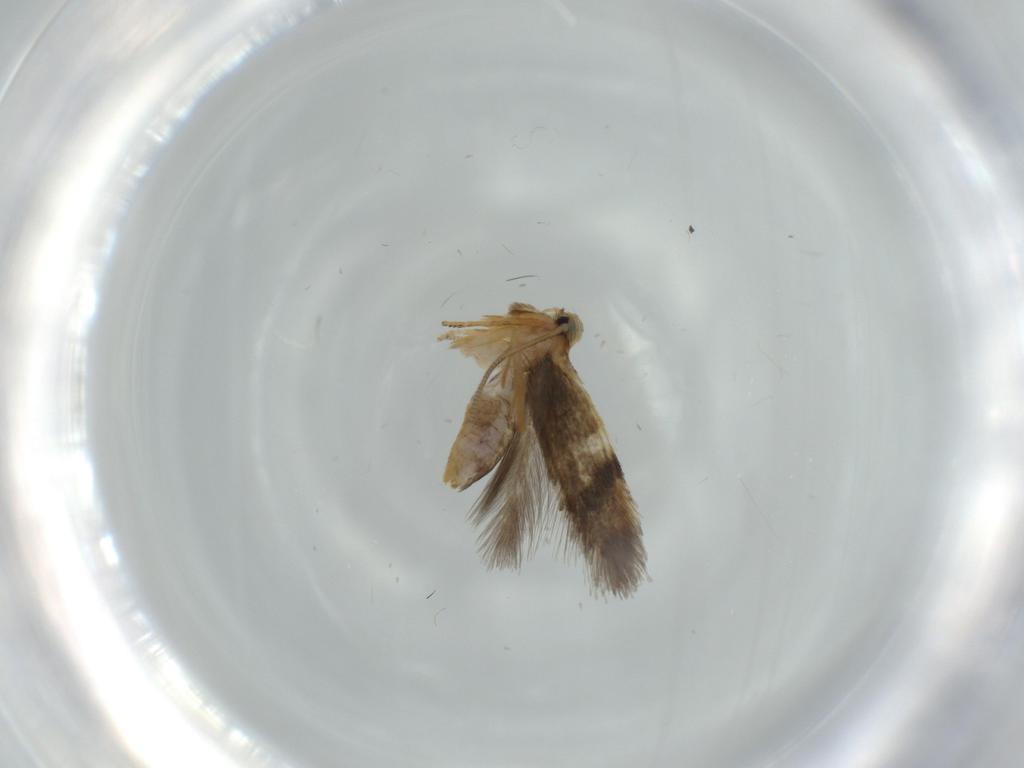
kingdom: Animalia
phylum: Arthropoda
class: Insecta
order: Lepidoptera
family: Nepticulidae
